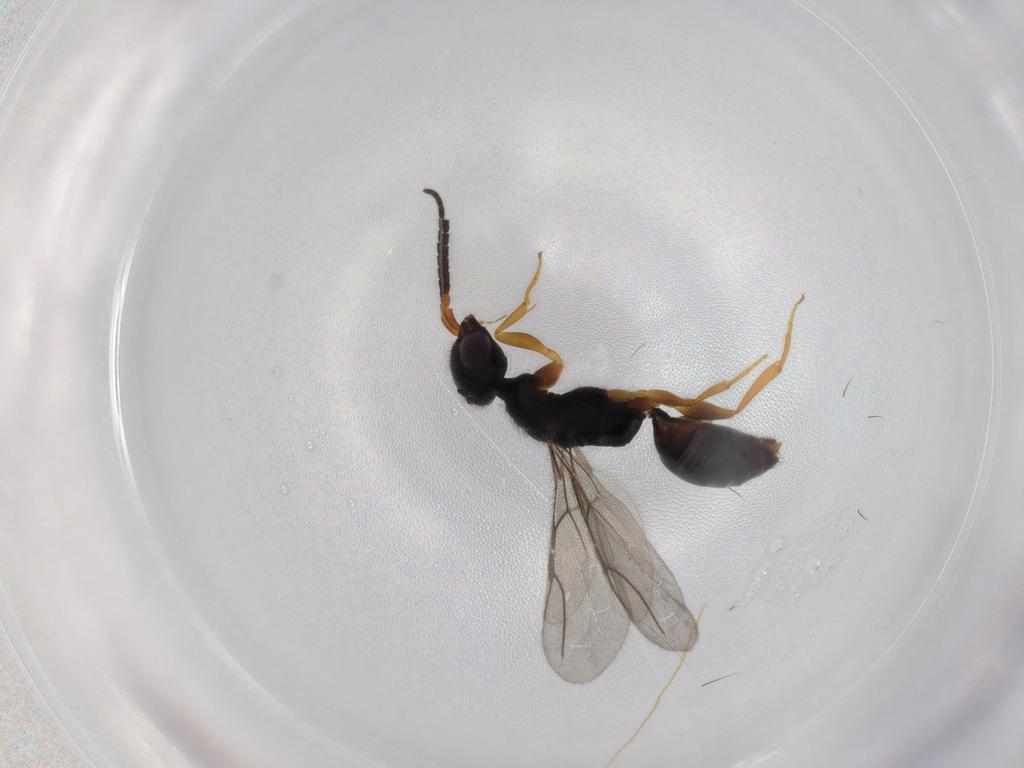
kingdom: Animalia
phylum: Arthropoda
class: Insecta
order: Hymenoptera
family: Bethylidae
